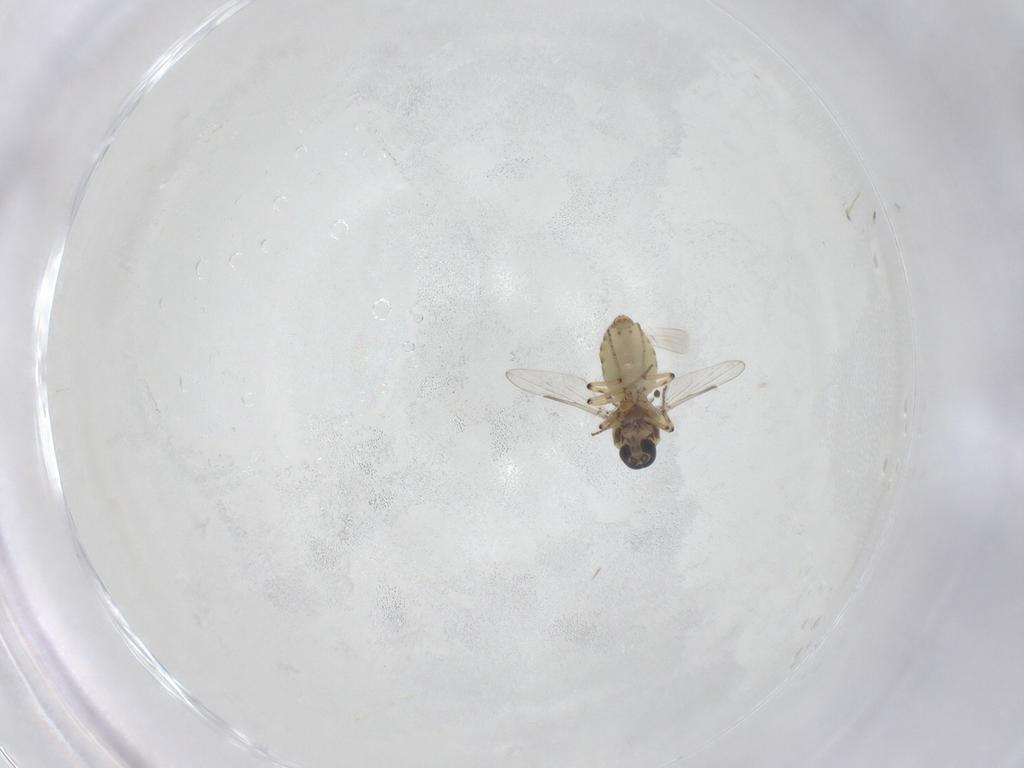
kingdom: Animalia
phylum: Arthropoda
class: Insecta
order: Diptera
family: Ceratopogonidae
